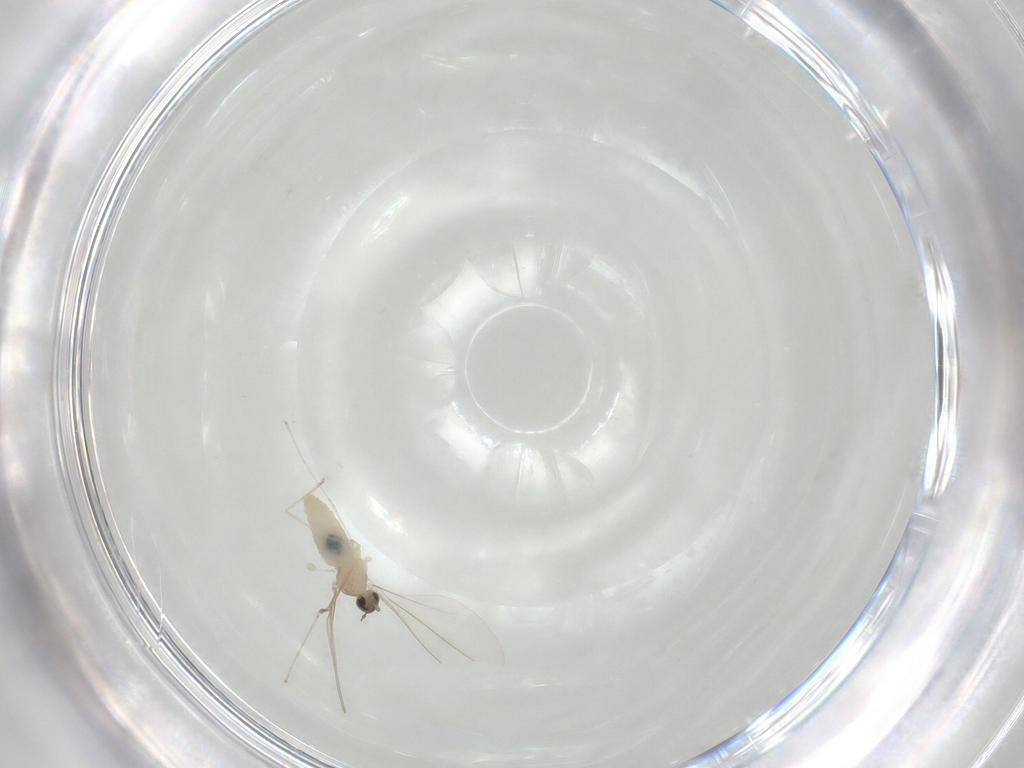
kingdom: Animalia
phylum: Arthropoda
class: Insecta
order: Diptera
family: Cecidomyiidae
